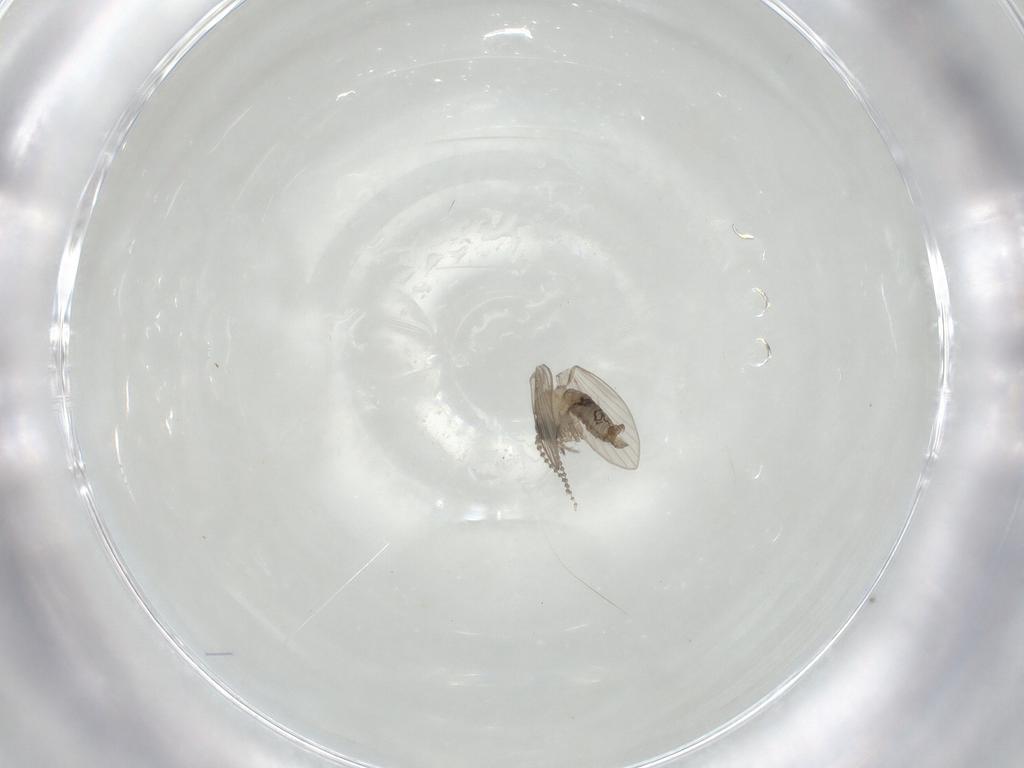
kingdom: Animalia
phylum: Arthropoda
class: Insecta
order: Diptera
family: Psychodidae
